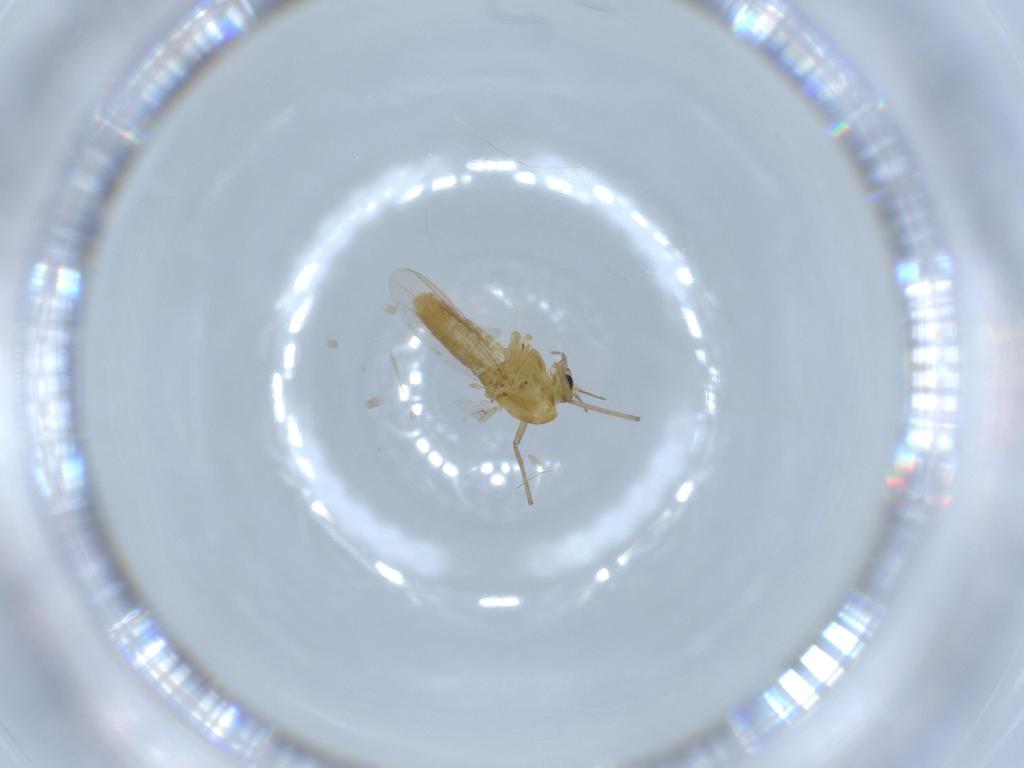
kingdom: Animalia
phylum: Arthropoda
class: Insecta
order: Diptera
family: Chironomidae
